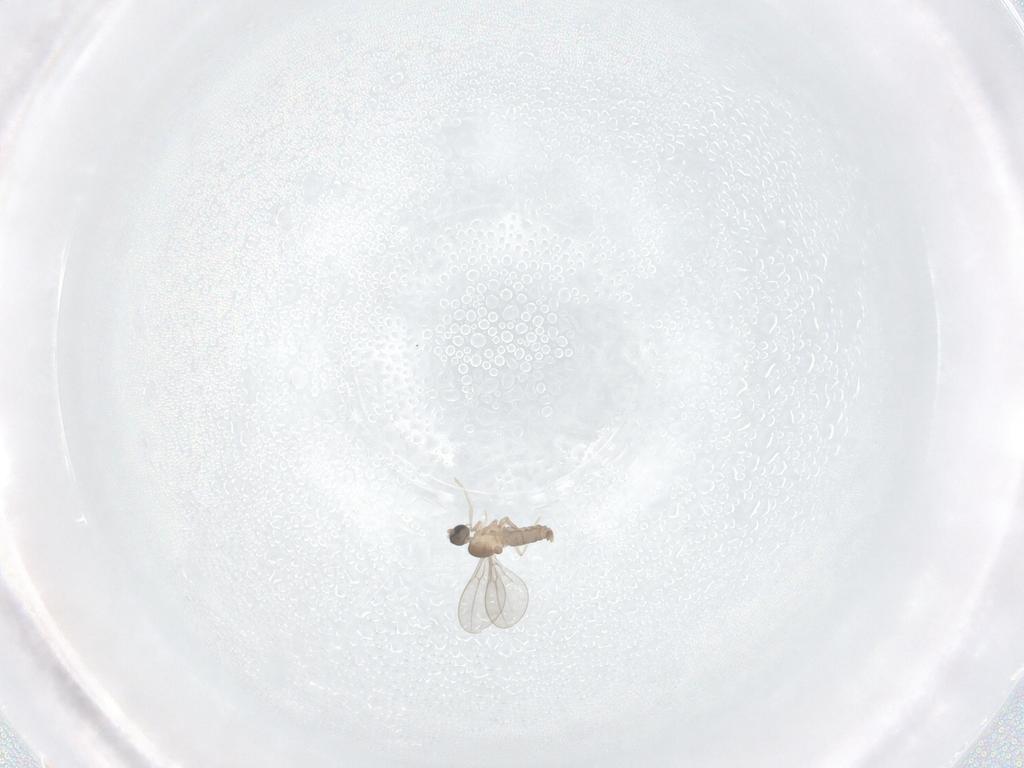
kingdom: Animalia
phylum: Arthropoda
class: Insecta
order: Diptera
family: Cecidomyiidae
